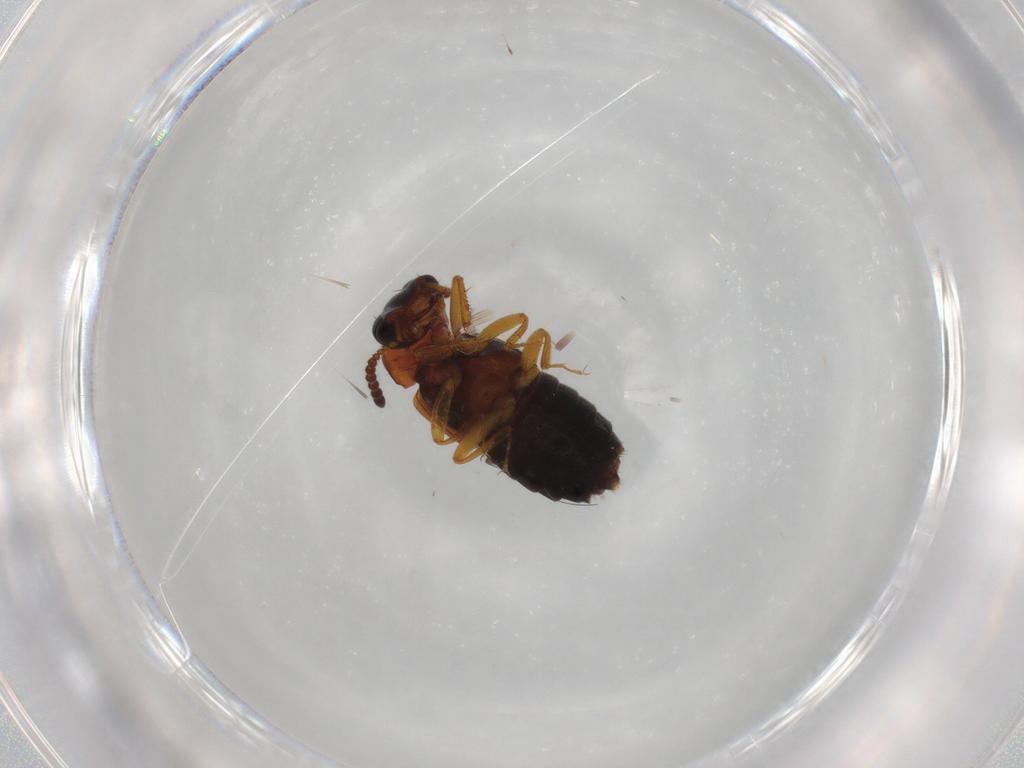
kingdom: Animalia
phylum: Arthropoda
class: Insecta
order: Coleoptera
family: Staphylinidae
